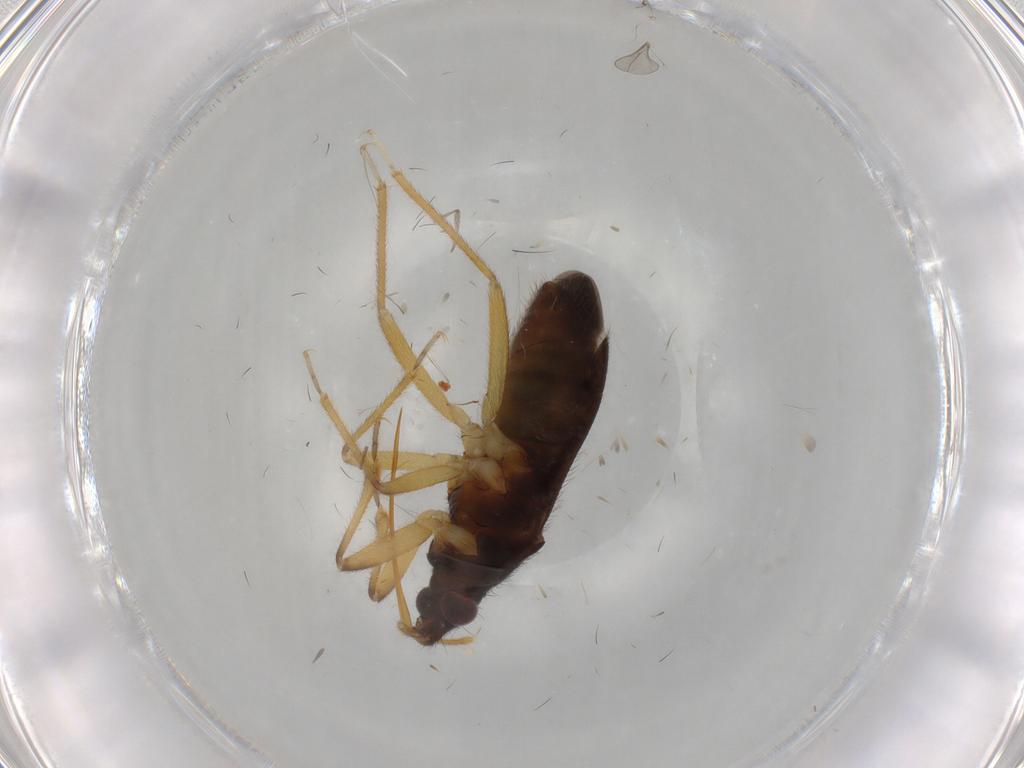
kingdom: Animalia
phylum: Arthropoda
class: Insecta
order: Hemiptera
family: Anthocoridae
